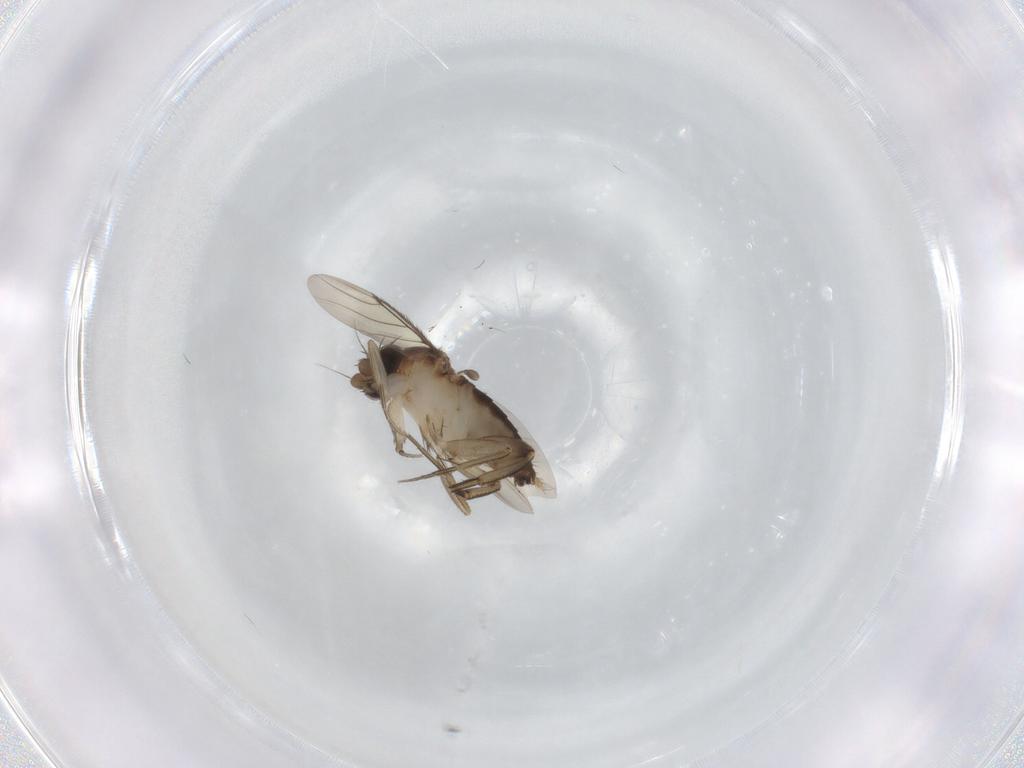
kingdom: Animalia
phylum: Arthropoda
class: Insecta
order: Diptera
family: Phoridae
